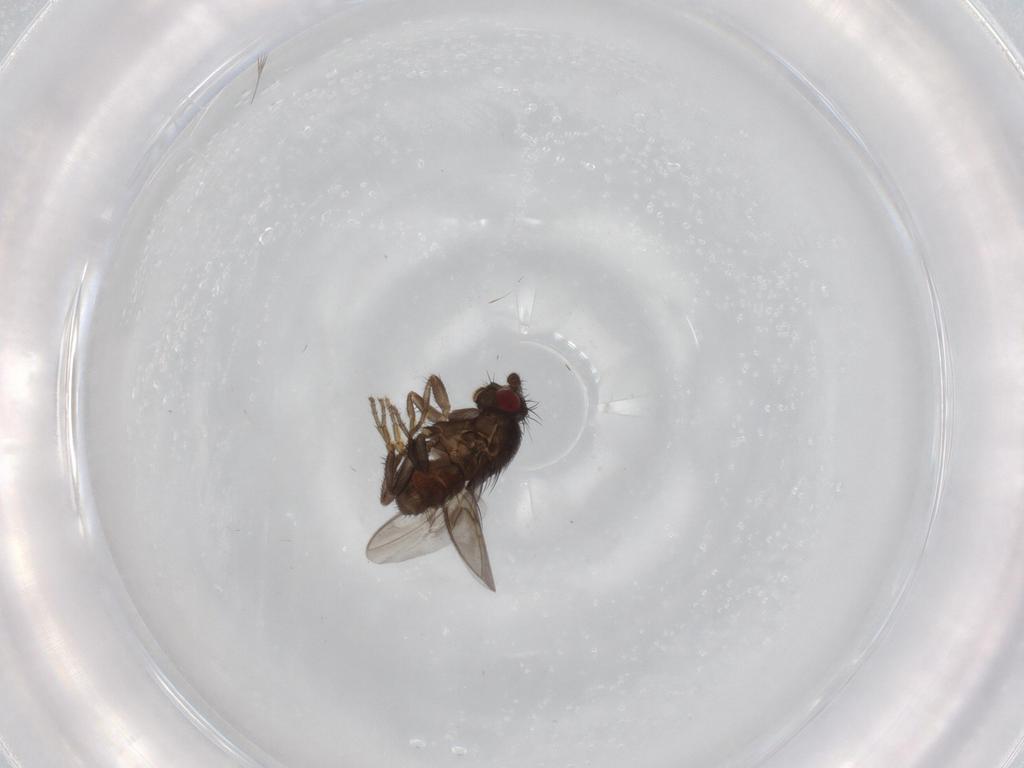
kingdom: Animalia
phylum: Arthropoda
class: Insecta
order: Diptera
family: Sphaeroceridae
